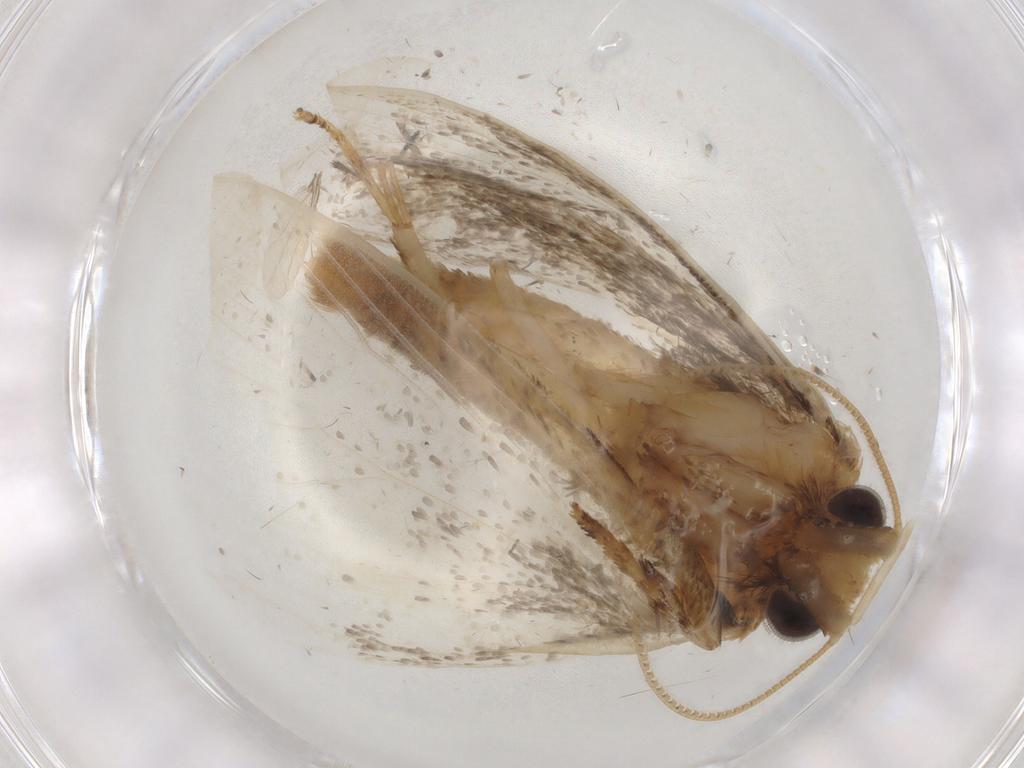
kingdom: Animalia
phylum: Arthropoda
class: Insecta
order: Lepidoptera
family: Tineidae
